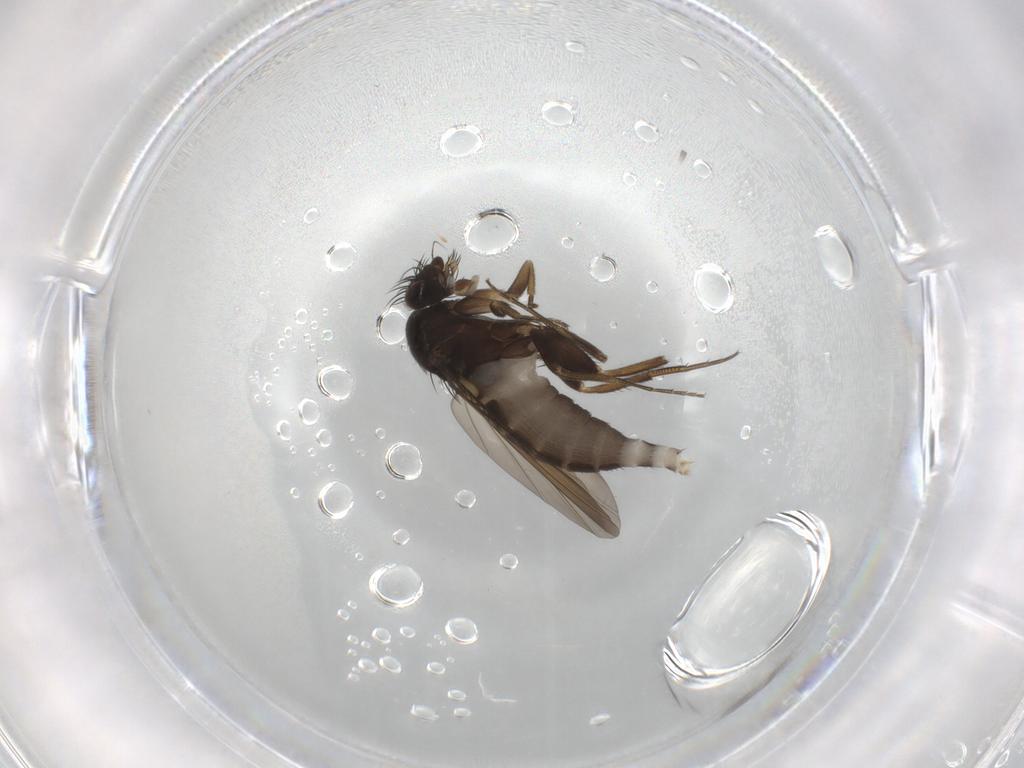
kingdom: Animalia
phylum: Arthropoda
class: Insecta
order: Diptera
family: Phoridae
